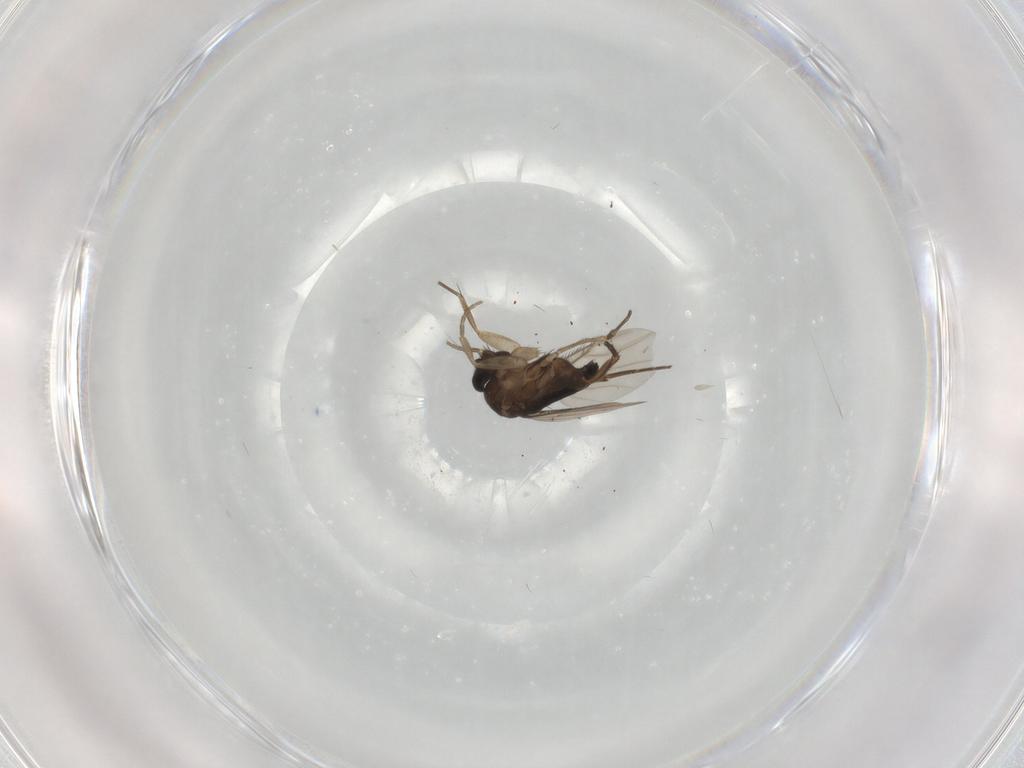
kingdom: Animalia
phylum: Arthropoda
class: Insecta
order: Diptera
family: Phoridae
